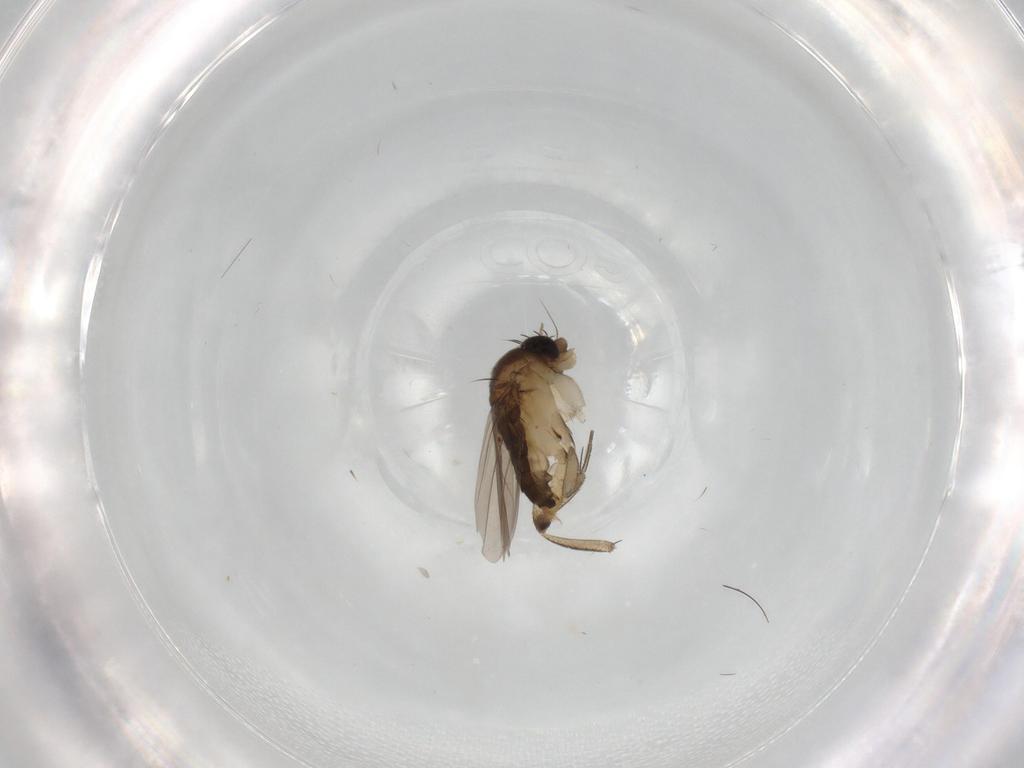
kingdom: Animalia
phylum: Arthropoda
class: Insecta
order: Diptera
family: Phoridae
